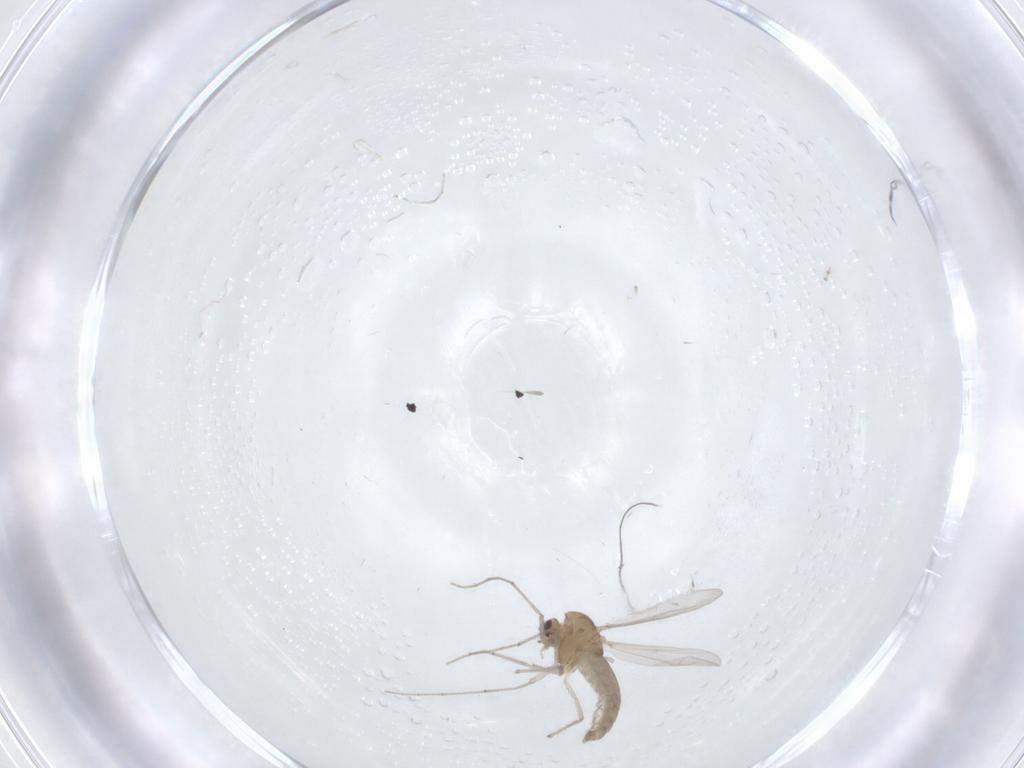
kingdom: Animalia
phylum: Arthropoda
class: Insecta
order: Diptera
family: Chironomidae
